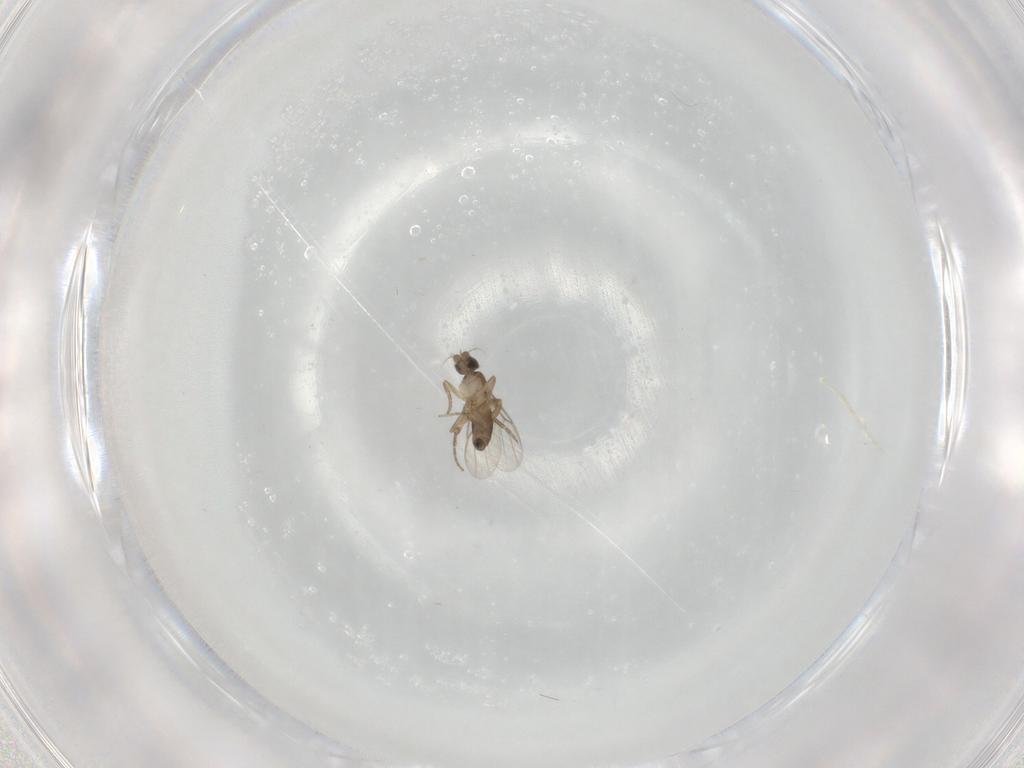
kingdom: Animalia
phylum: Arthropoda
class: Insecta
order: Diptera
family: Phoridae
